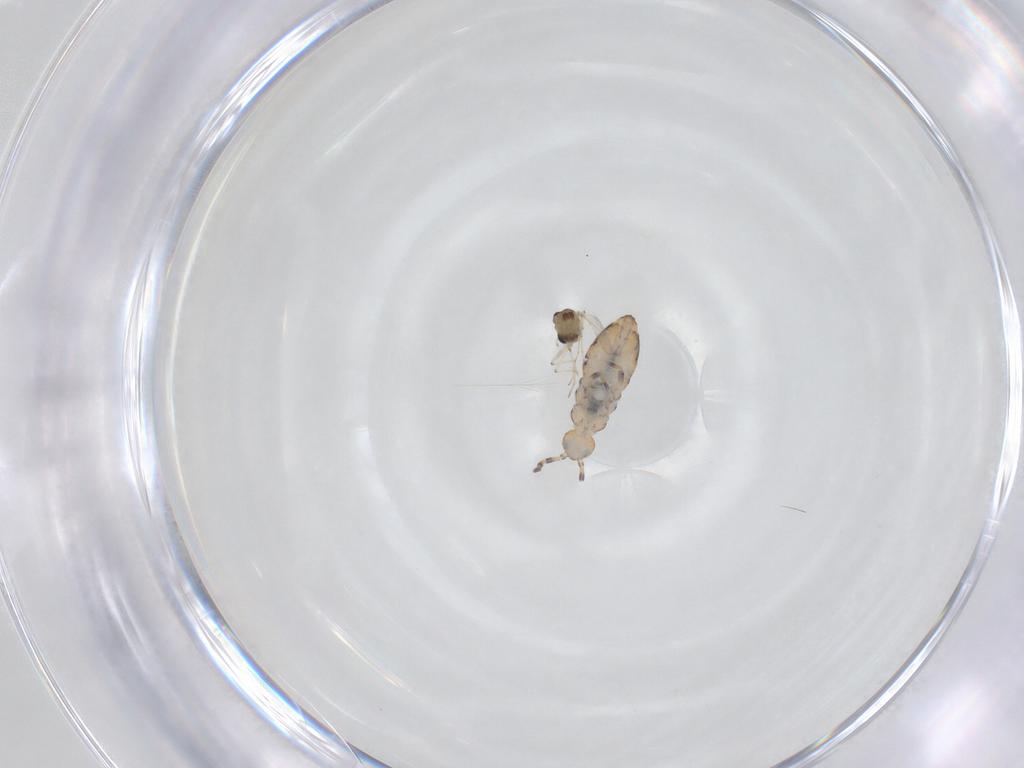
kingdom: Animalia
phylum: Arthropoda
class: Insecta
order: Diptera
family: Chironomidae
